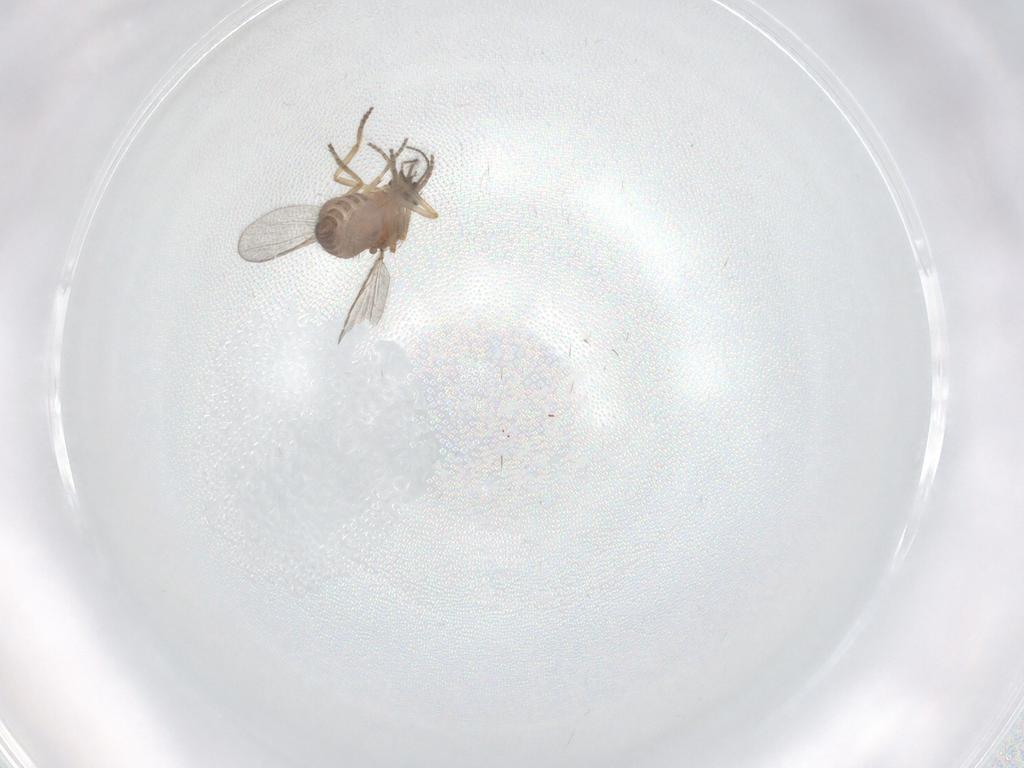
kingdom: Animalia
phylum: Arthropoda
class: Insecta
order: Diptera
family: Ceratopogonidae
